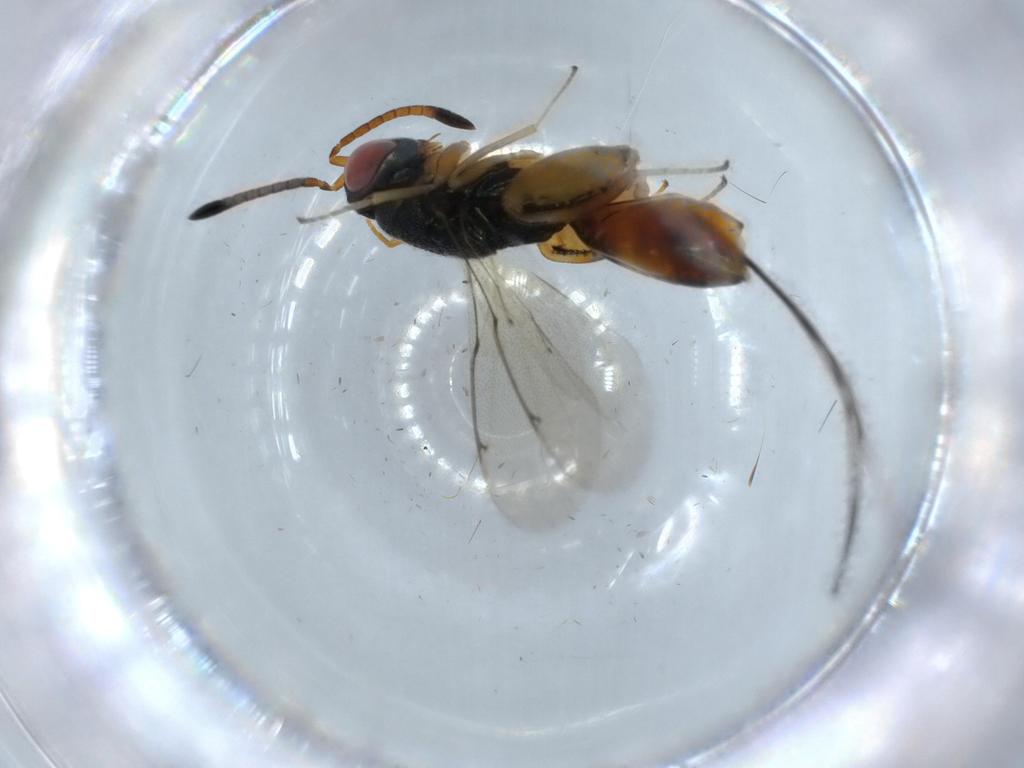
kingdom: Animalia
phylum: Arthropoda
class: Insecta
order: Hymenoptera
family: Torymidae
